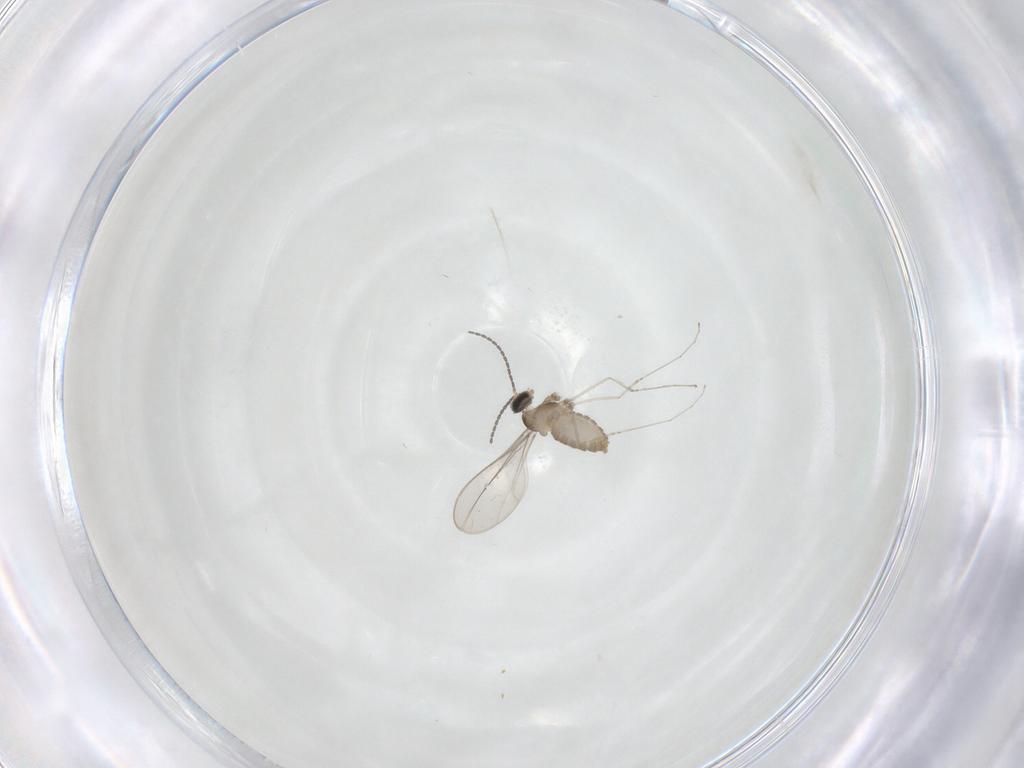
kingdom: Animalia
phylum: Arthropoda
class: Insecta
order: Diptera
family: Cecidomyiidae
